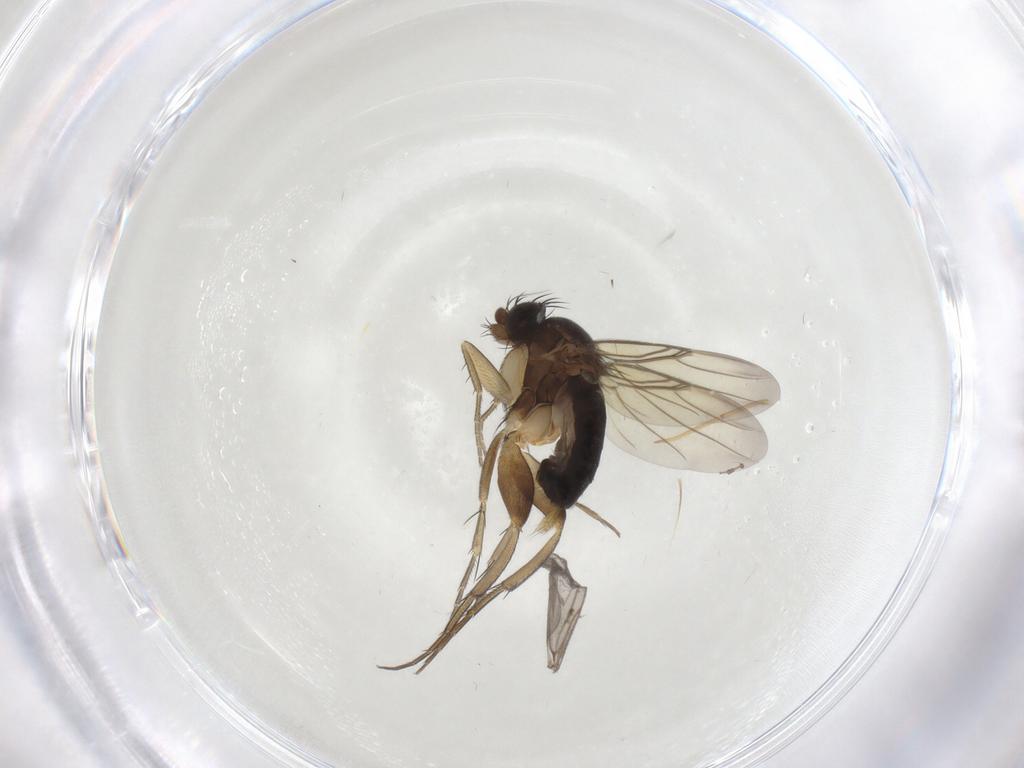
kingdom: Animalia
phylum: Arthropoda
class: Insecta
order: Diptera
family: Phoridae
